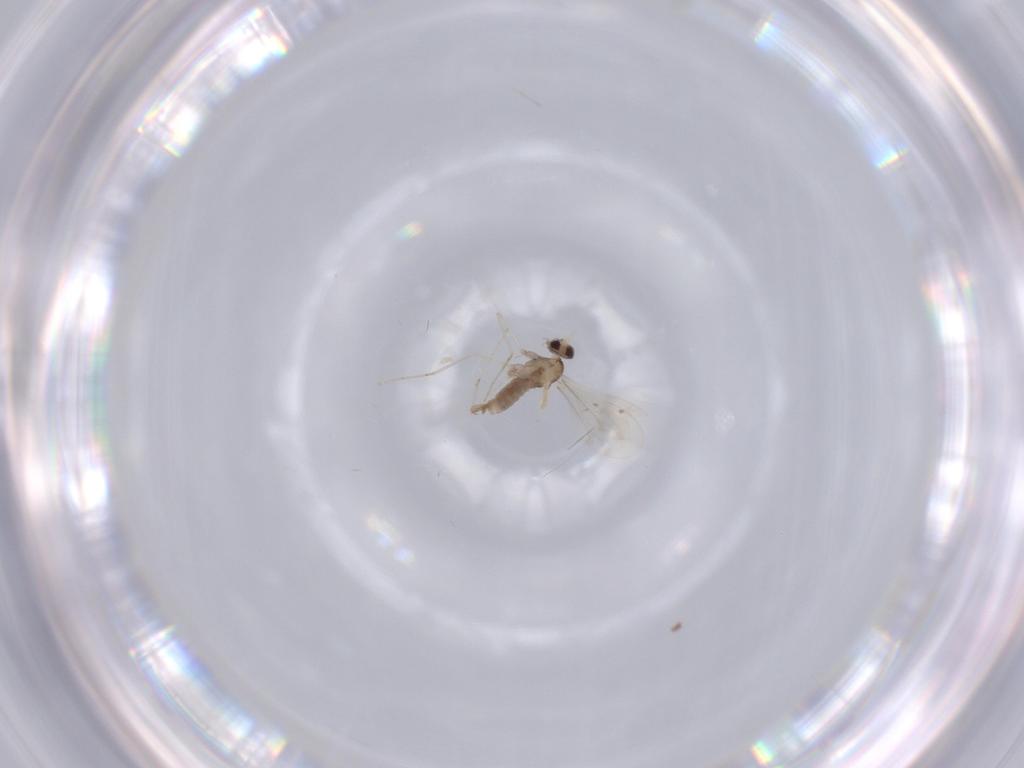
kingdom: Animalia
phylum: Arthropoda
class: Insecta
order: Diptera
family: Cecidomyiidae
